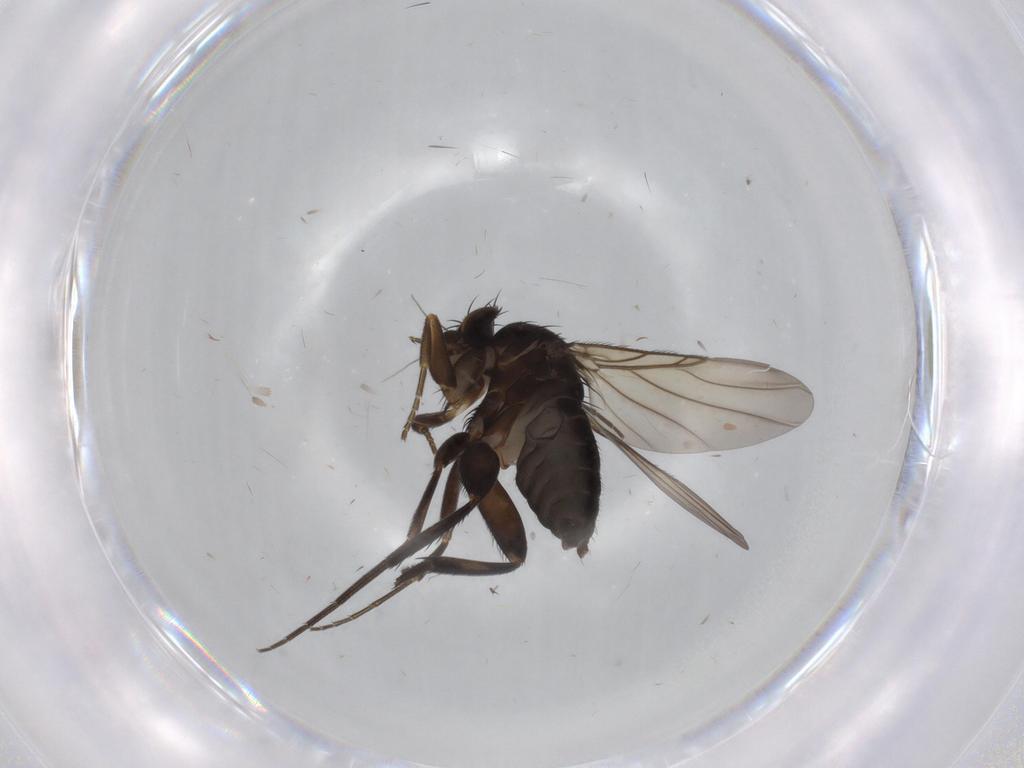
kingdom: Animalia
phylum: Arthropoda
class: Insecta
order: Diptera
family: Phoridae
